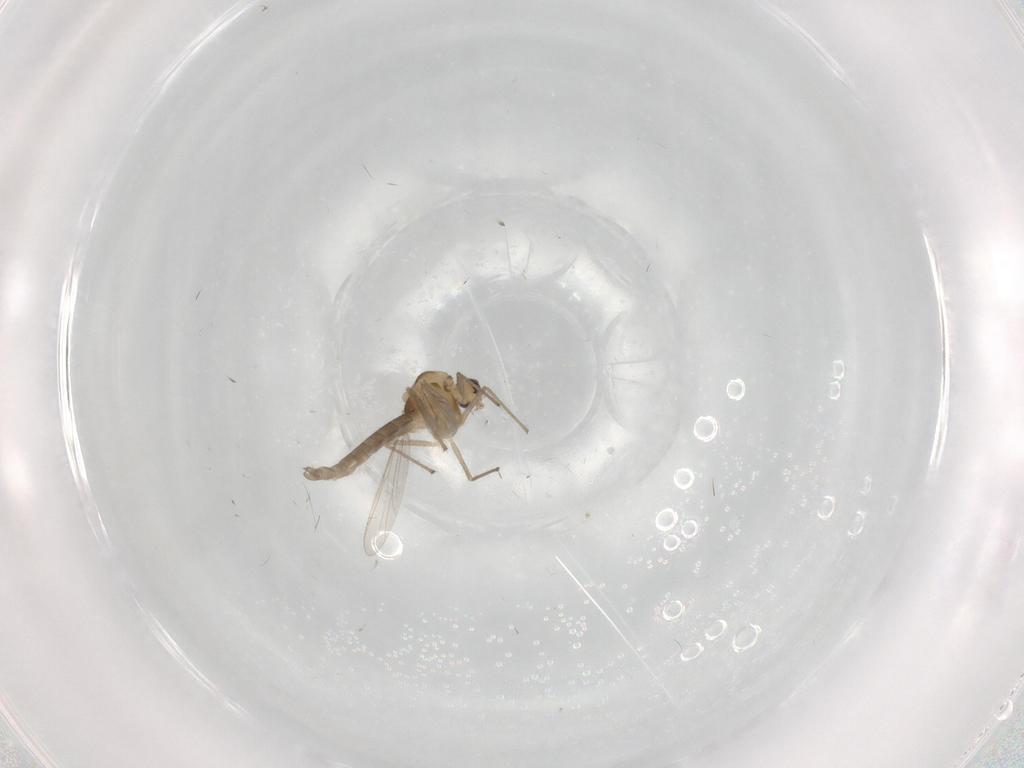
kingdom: Animalia
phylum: Arthropoda
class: Insecta
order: Diptera
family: Chironomidae
